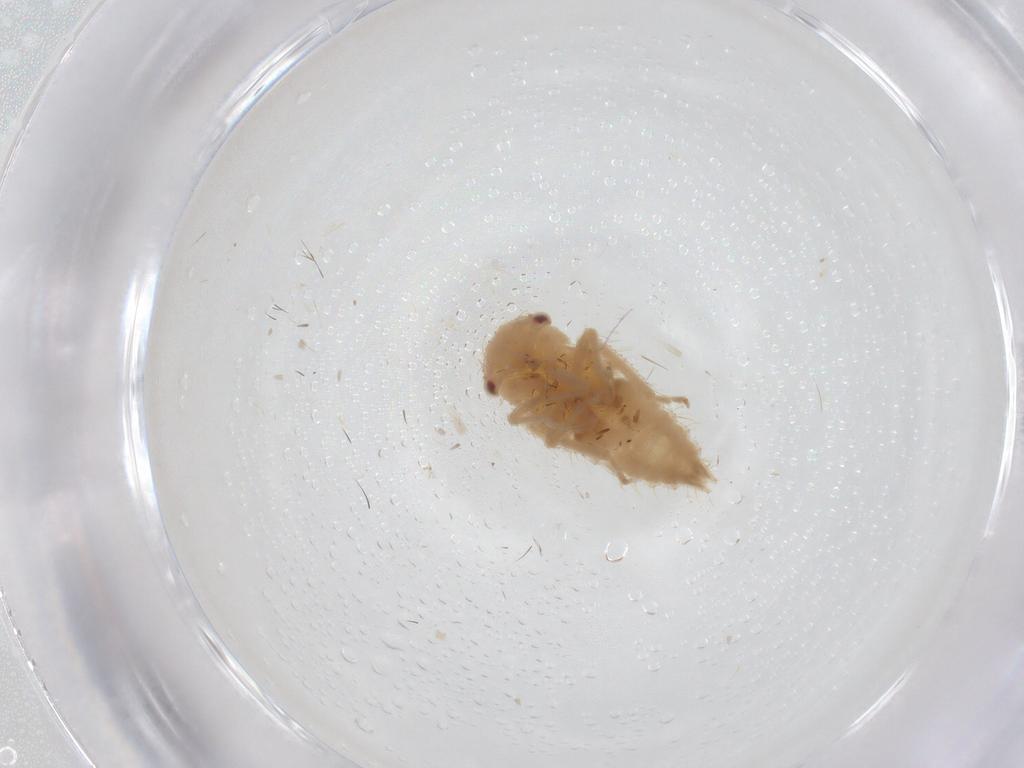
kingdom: Animalia
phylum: Arthropoda
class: Insecta
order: Hemiptera
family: Cicadellidae
